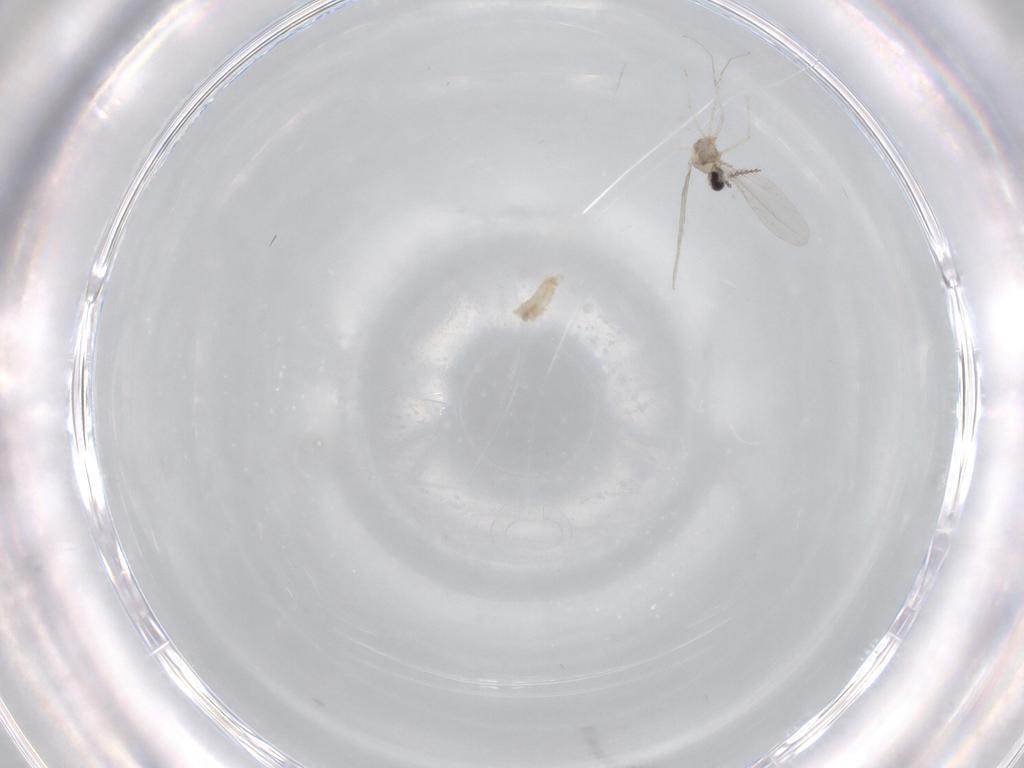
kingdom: Animalia
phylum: Arthropoda
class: Insecta
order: Diptera
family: Cecidomyiidae
